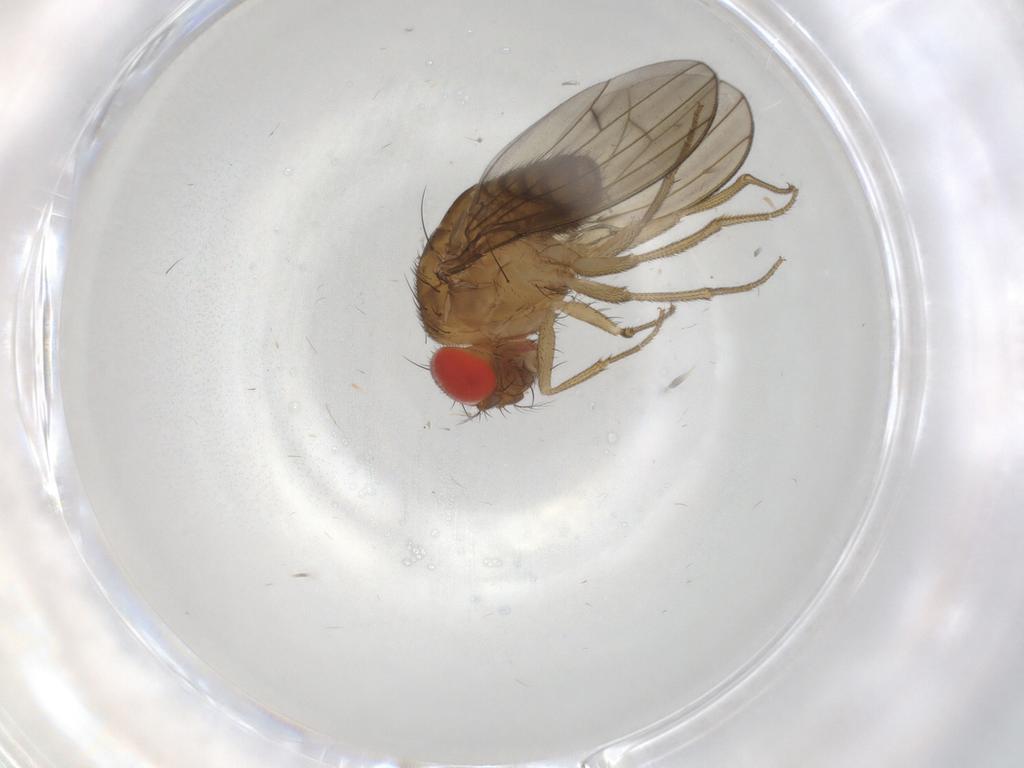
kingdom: Animalia
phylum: Arthropoda
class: Insecta
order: Diptera
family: Drosophilidae
